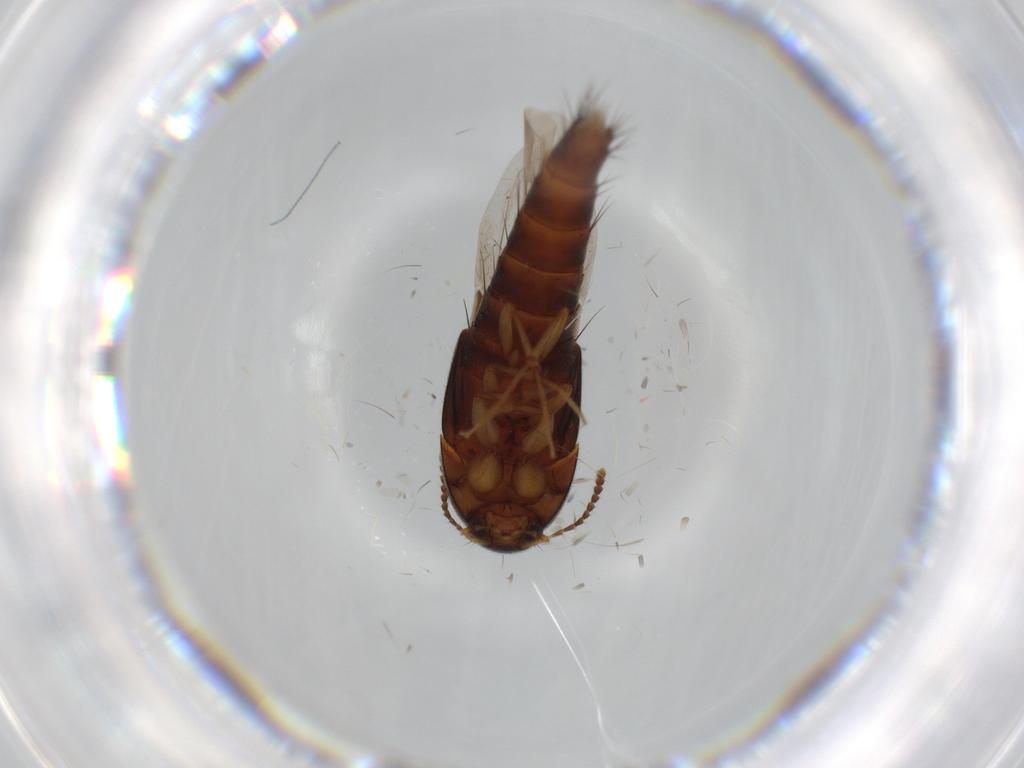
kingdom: Animalia
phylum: Arthropoda
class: Insecta
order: Coleoptera
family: Staphylinidae
